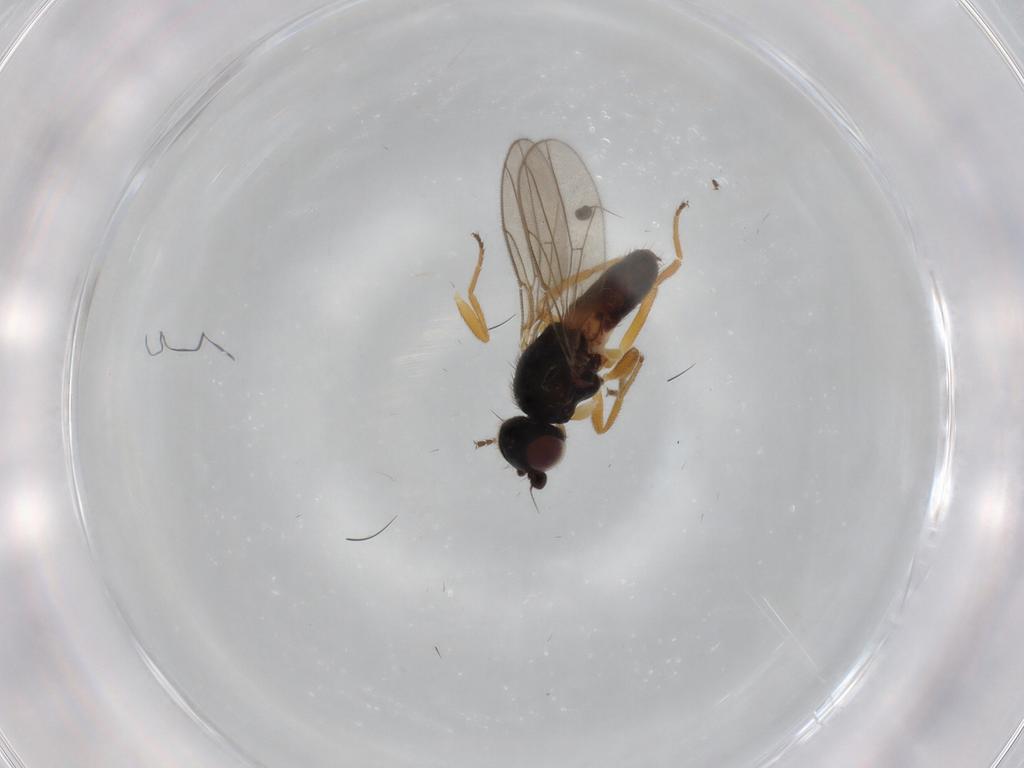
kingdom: Animalia
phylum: Arthropoda
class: Insecta
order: Diptera
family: Chloropidae
